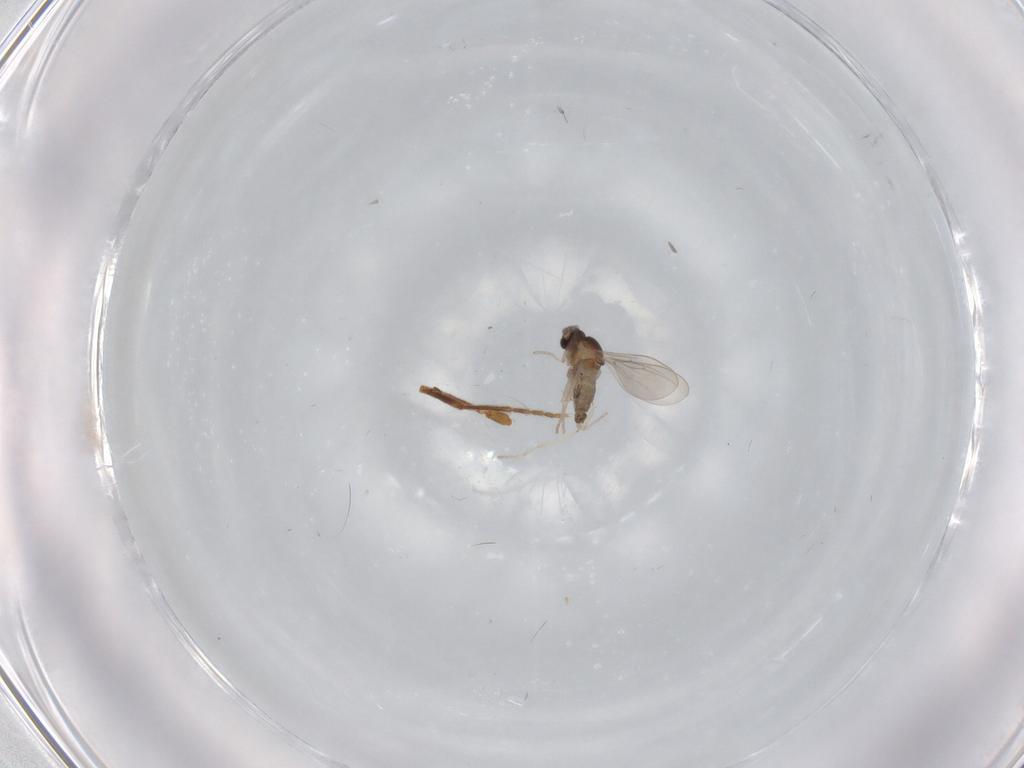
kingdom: Animalia
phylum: Arthropoda
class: Insecta
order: Diptera
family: Cecidomyiidae
